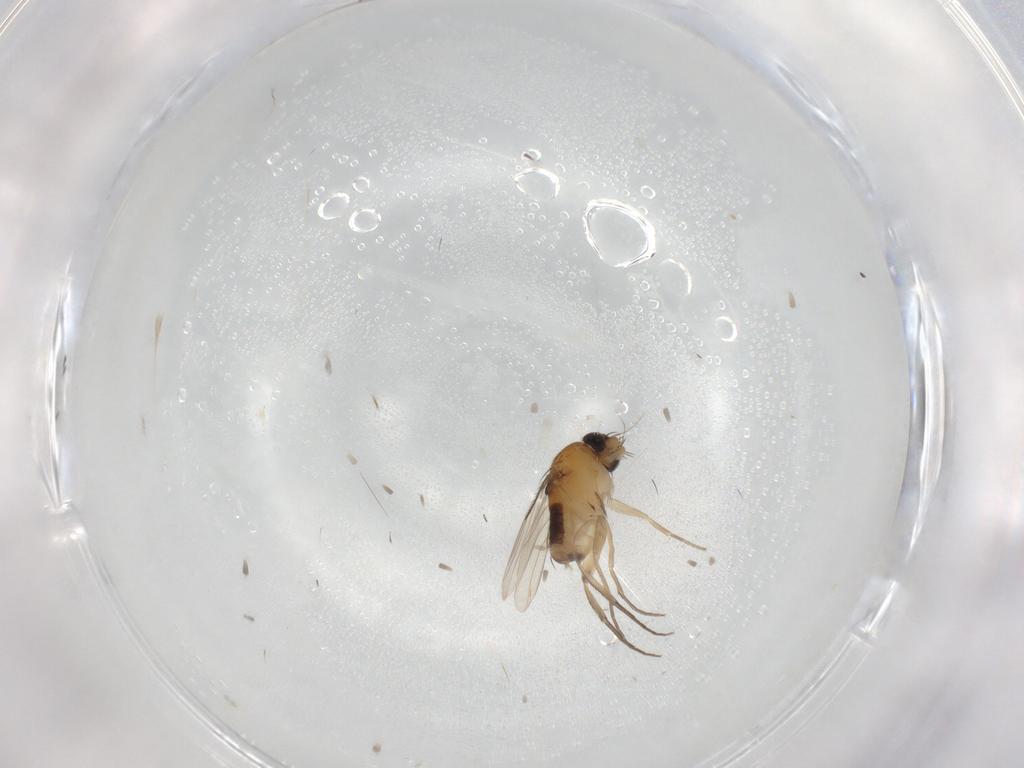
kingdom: Animalia
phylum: Arthropoda
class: Insecta
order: Diptera
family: Phoridae
